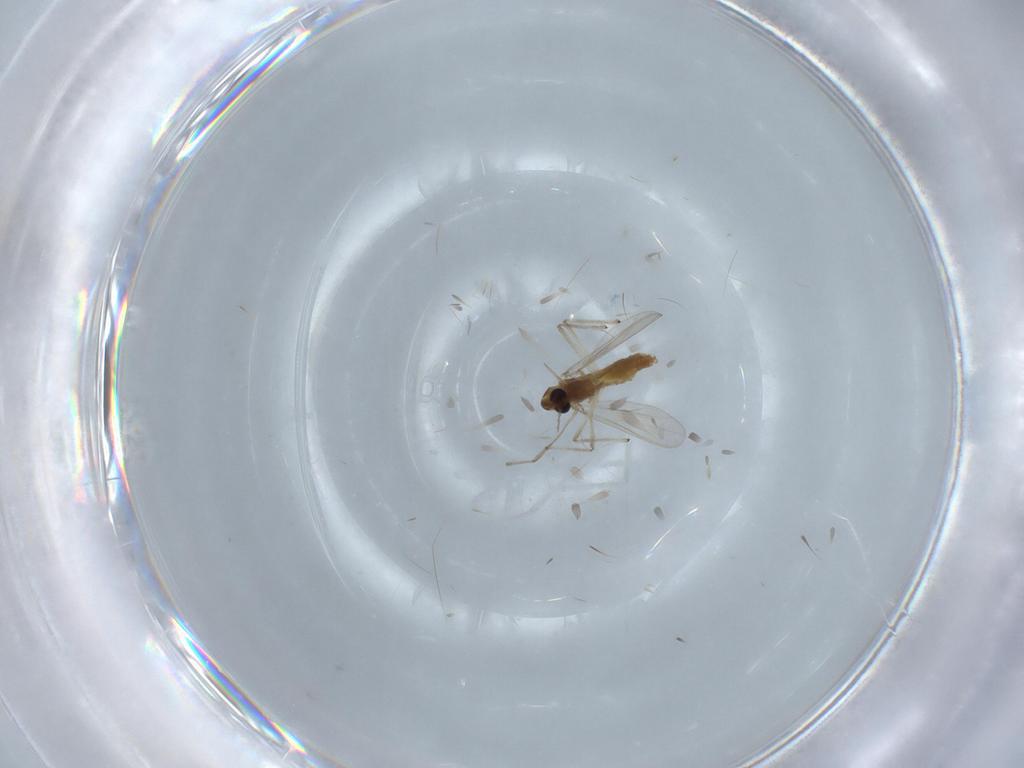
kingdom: Animalia
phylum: Arthropoda
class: Insecta
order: Diptera
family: Chironomidae
